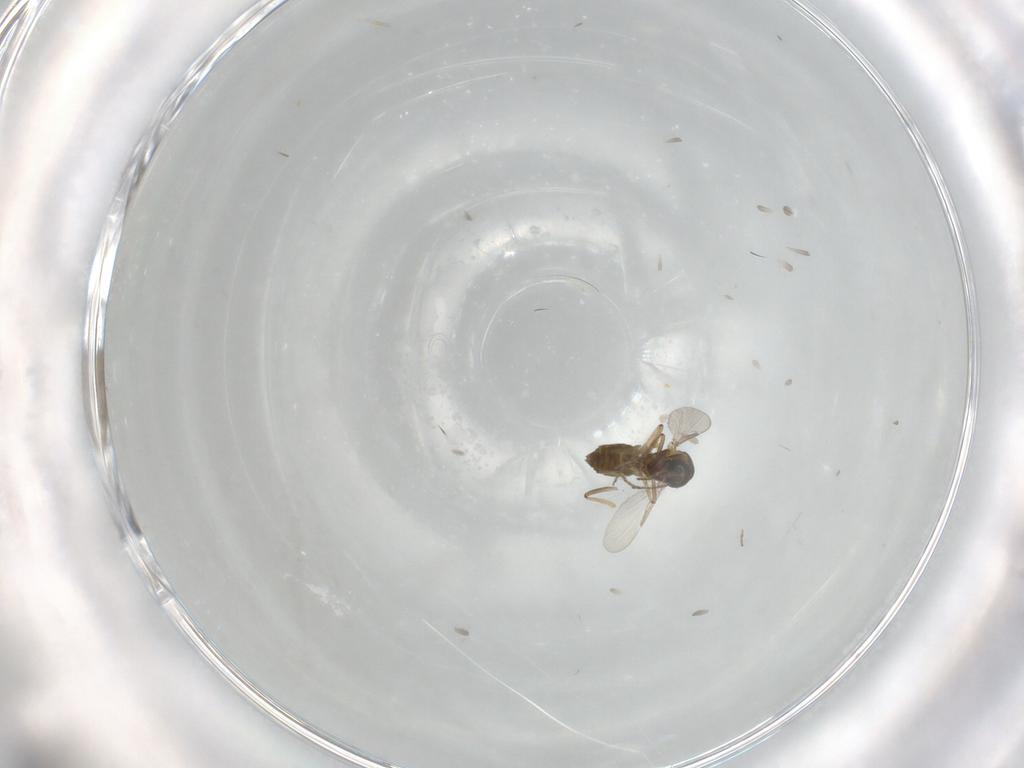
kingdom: Animalia
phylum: Arthropoda
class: Insecta
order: Diptera
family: Ceratopogonidae
